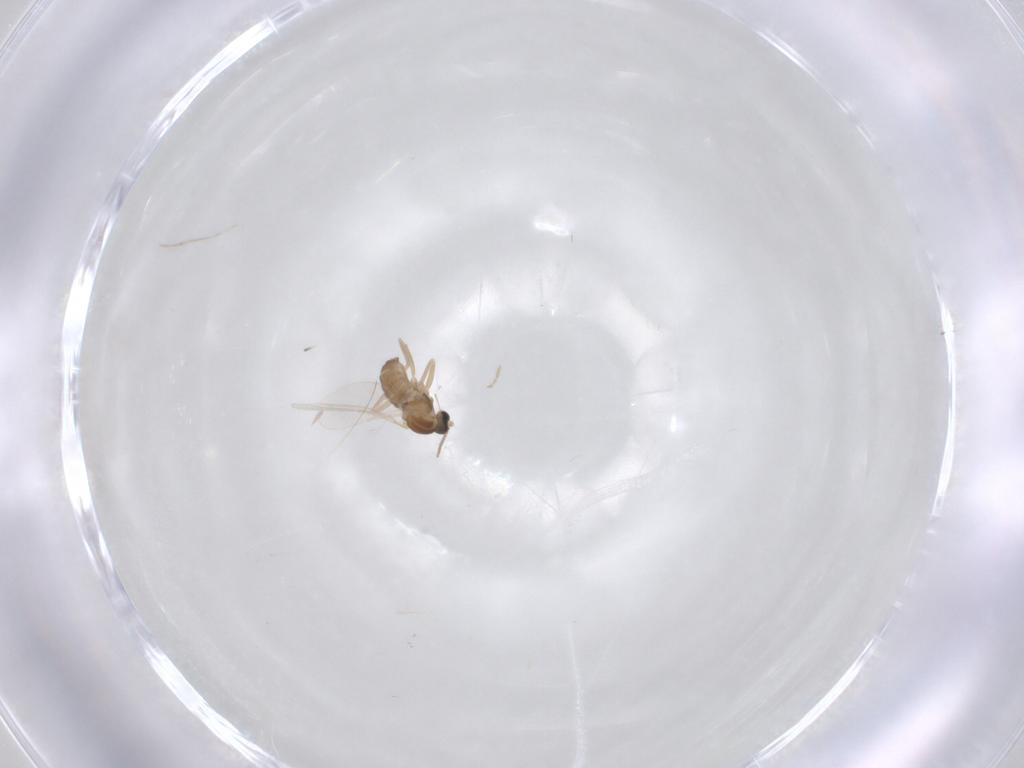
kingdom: Animalia
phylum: Arthropoda
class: Insecta
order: Diptera
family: Cecidomyiidae
